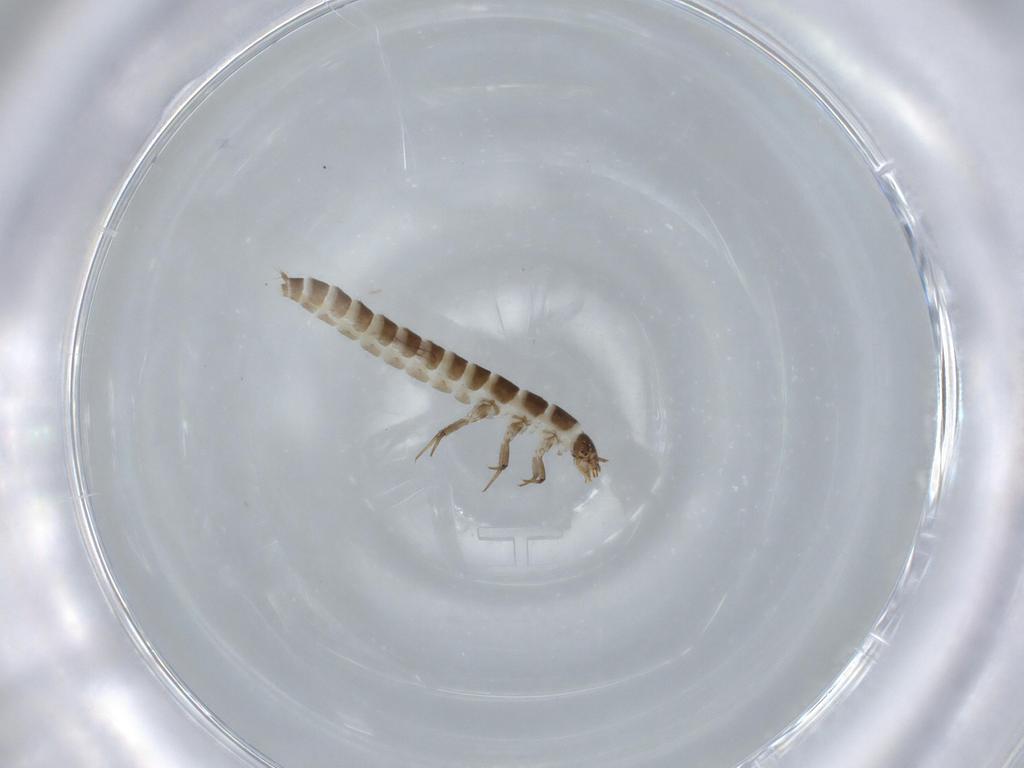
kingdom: Animalia
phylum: Arthropoda
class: Insecta
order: Coleoptera
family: Hydraenidae
